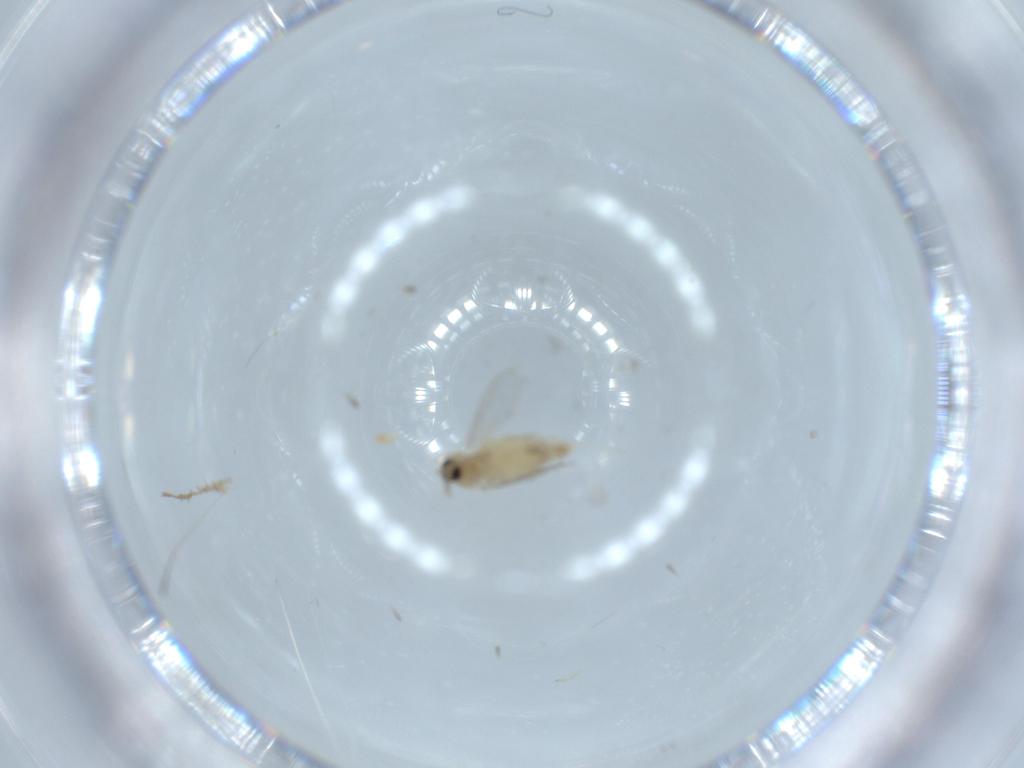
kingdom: Animalia
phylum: Arthropoda
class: Insecta
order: Diptera
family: Cecidomyiidae
